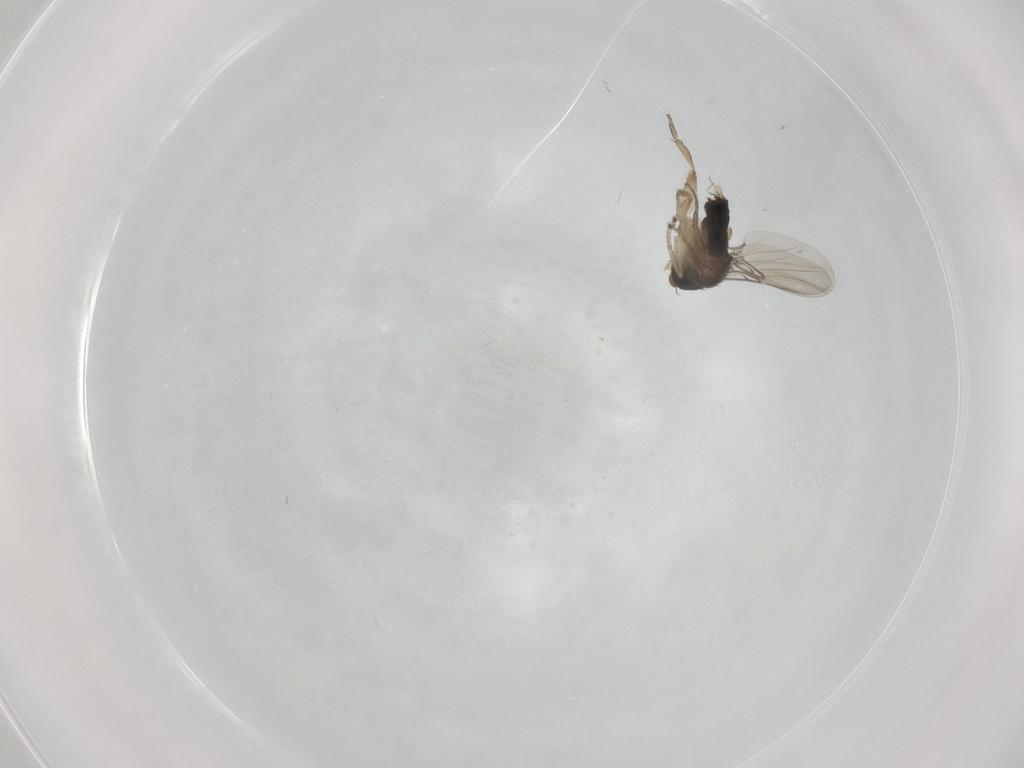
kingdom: Animalia
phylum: Arthropoda
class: Insecta
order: Diptera
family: Phoridae
